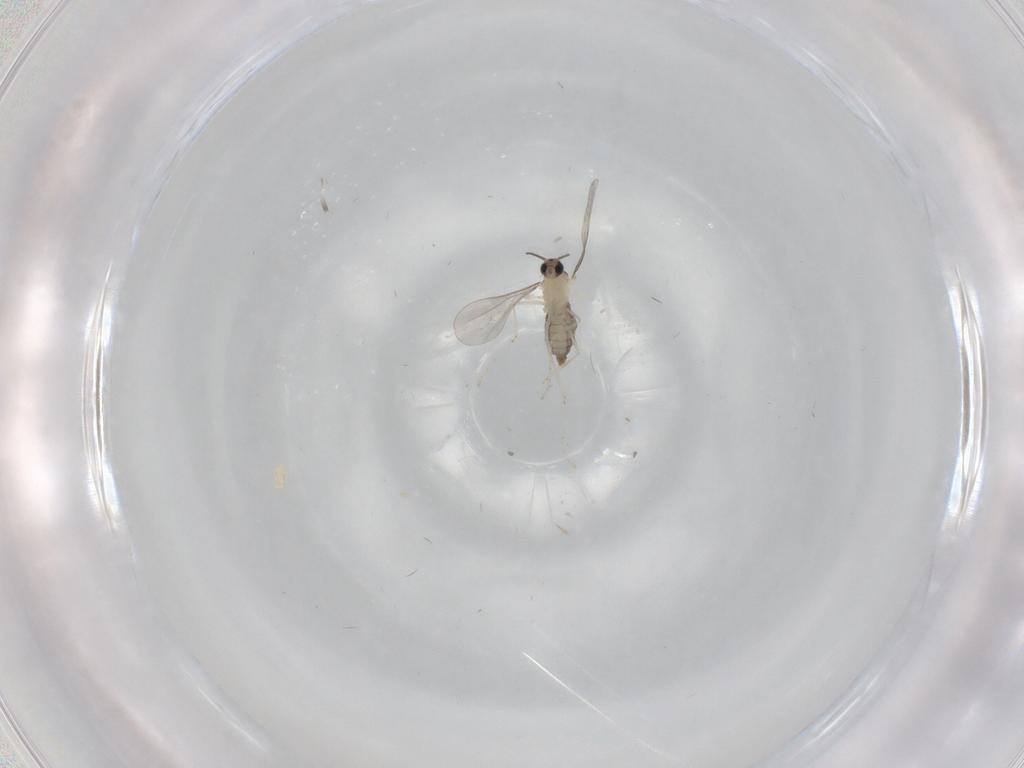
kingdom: Animalia
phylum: Arthropoda
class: Insecta
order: Diptera
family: Cecidomyiidae
